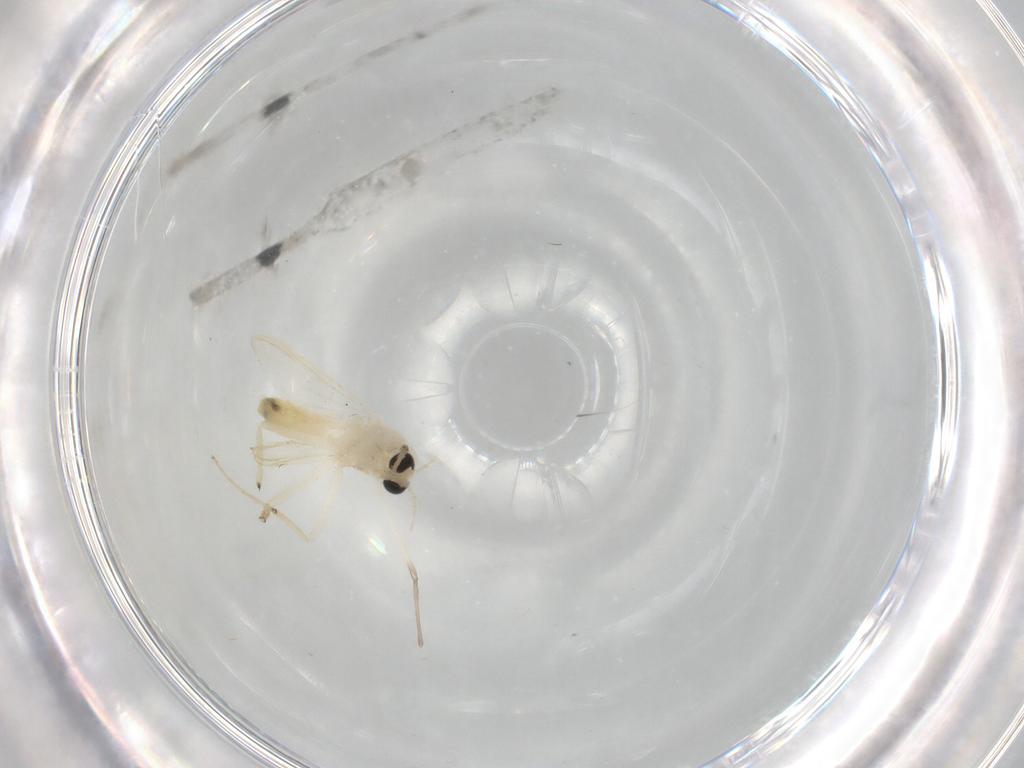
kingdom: Animalia
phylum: Arthropoda
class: Insecta
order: Diptera
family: Chironomidae
